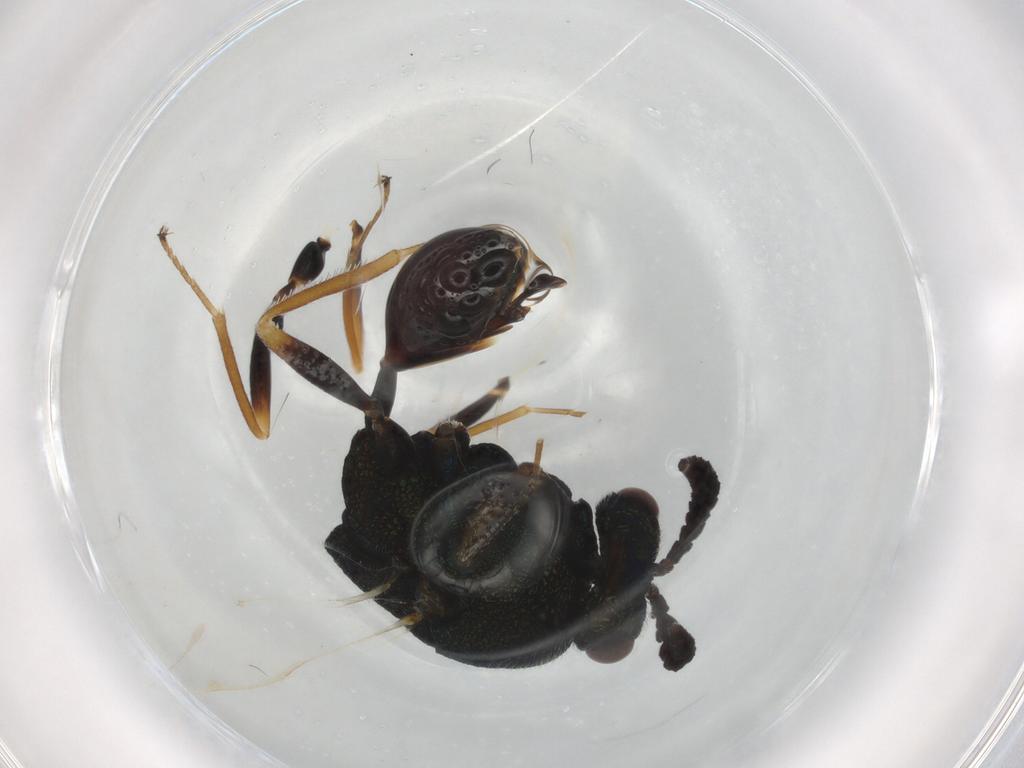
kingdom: Animalia
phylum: Arthropoda
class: Insecta
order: Hymenoptera
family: Formicidae
